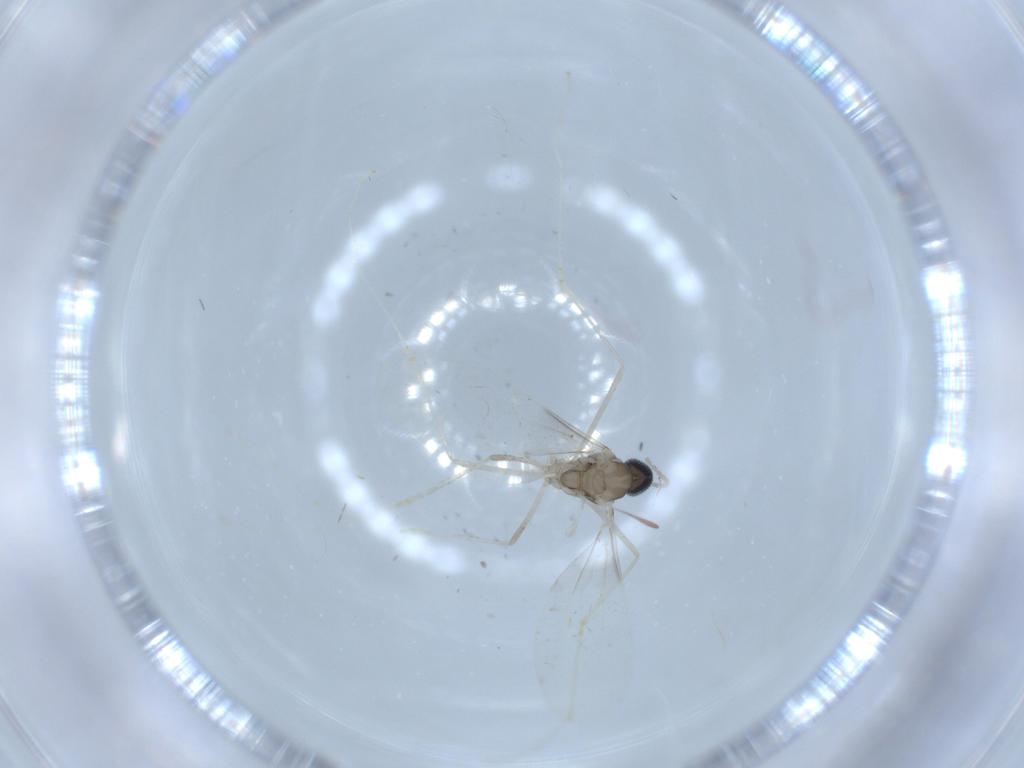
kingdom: Animalia
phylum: Arthropoda
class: Insecta
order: Diptera
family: Cecidomyiidae
